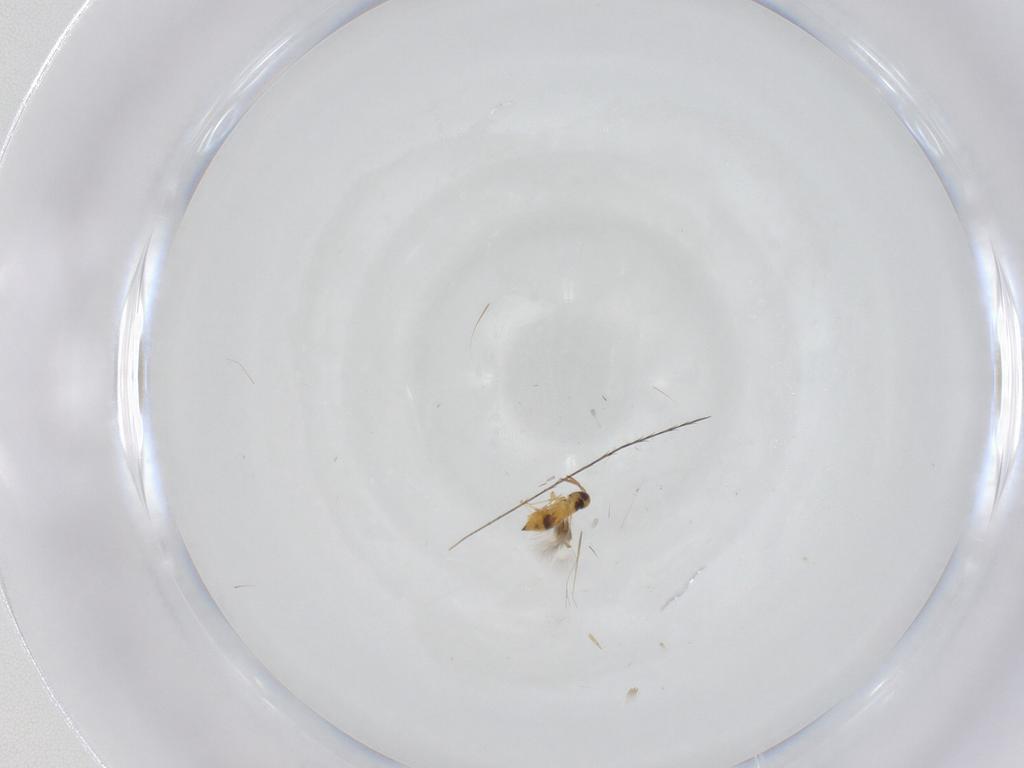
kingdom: Animalia
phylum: Arthropoda
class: Insecta
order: Hymenoptera
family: Signiphoridae
